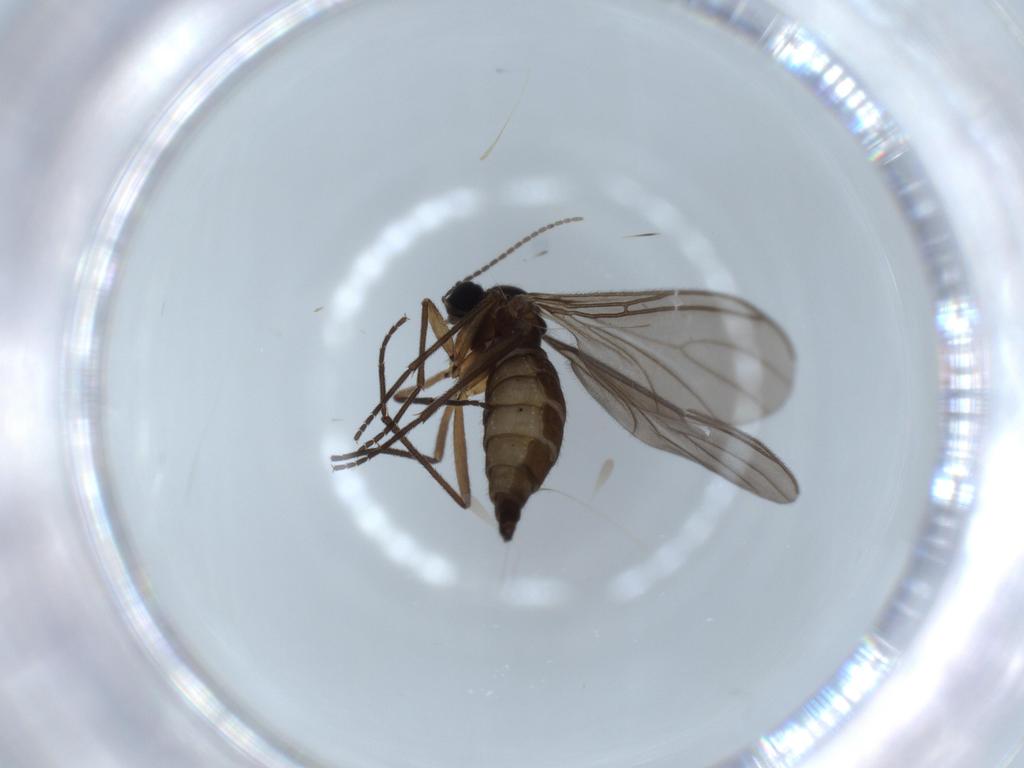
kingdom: Animalia
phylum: Arthropoda
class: Insecta
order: Diptera
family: Sciaridae
